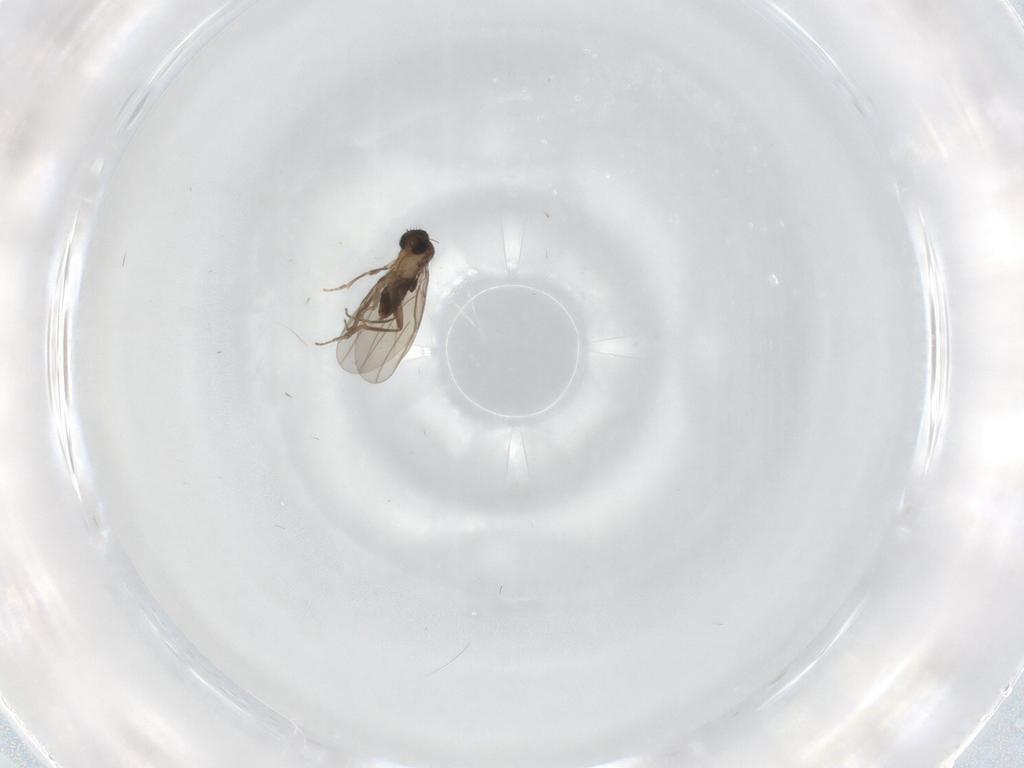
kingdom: Animalia
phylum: Arthropoda
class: Insecta
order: Diptera
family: Phoridae
